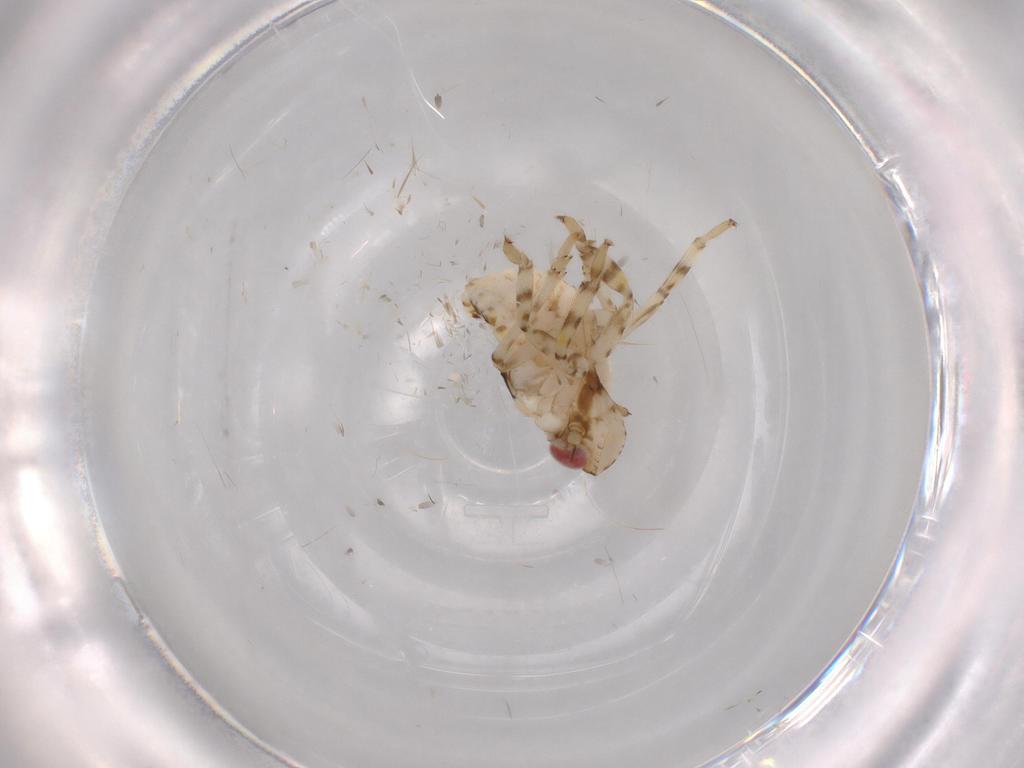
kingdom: Animalia
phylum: Arthropoda
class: Insecta
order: Hemiptera
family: Issidae
